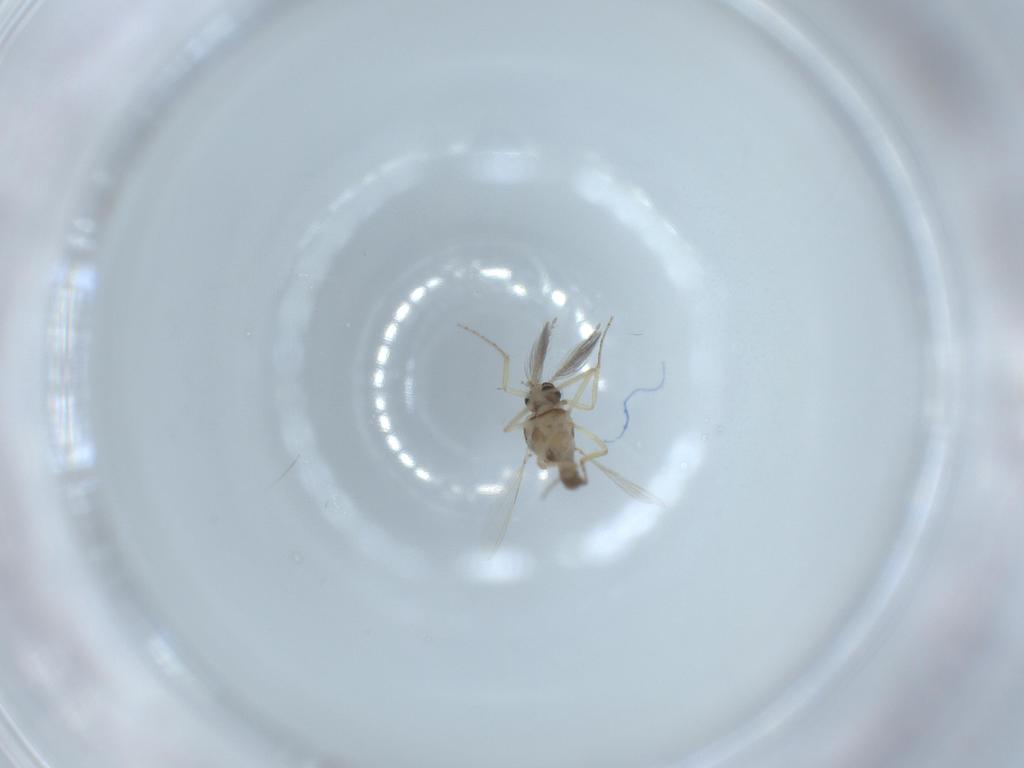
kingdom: Animalia
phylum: Arthropoda
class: Insecta
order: Diptera
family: Ceratopogonidae
